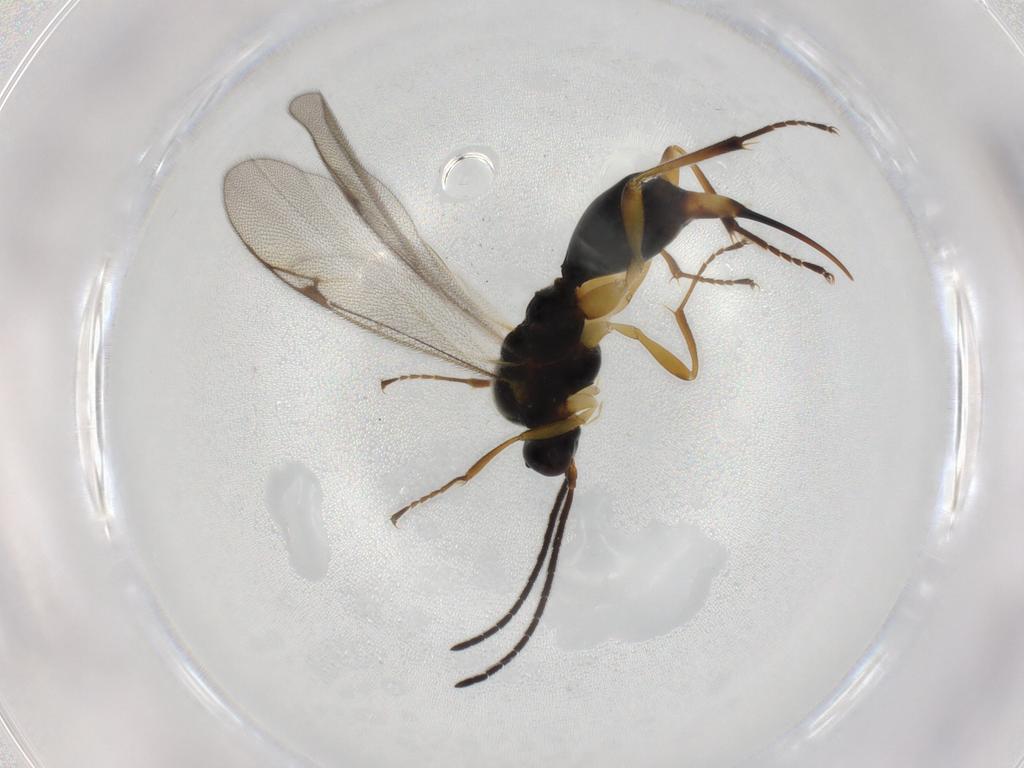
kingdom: Animalia
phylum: Arthropoda
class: Insecta
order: Hymenoptera
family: Proctotrupidae
